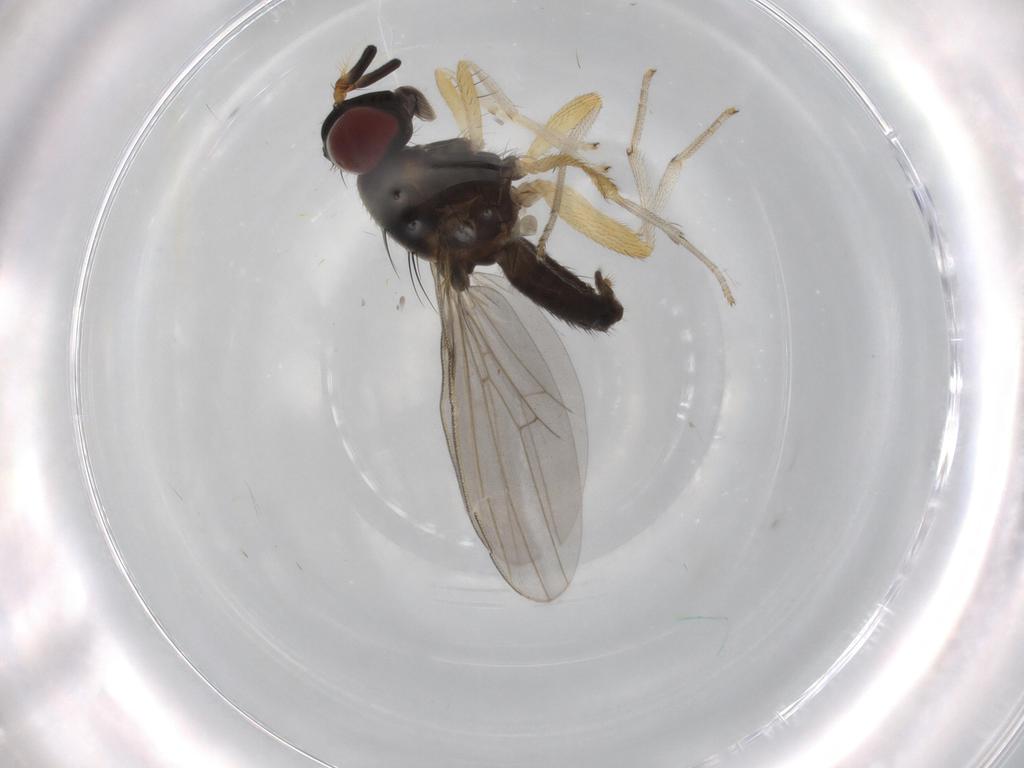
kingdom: Animalia
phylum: Arthropoda
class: Insecta
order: Diptera
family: Lauxaniidae
